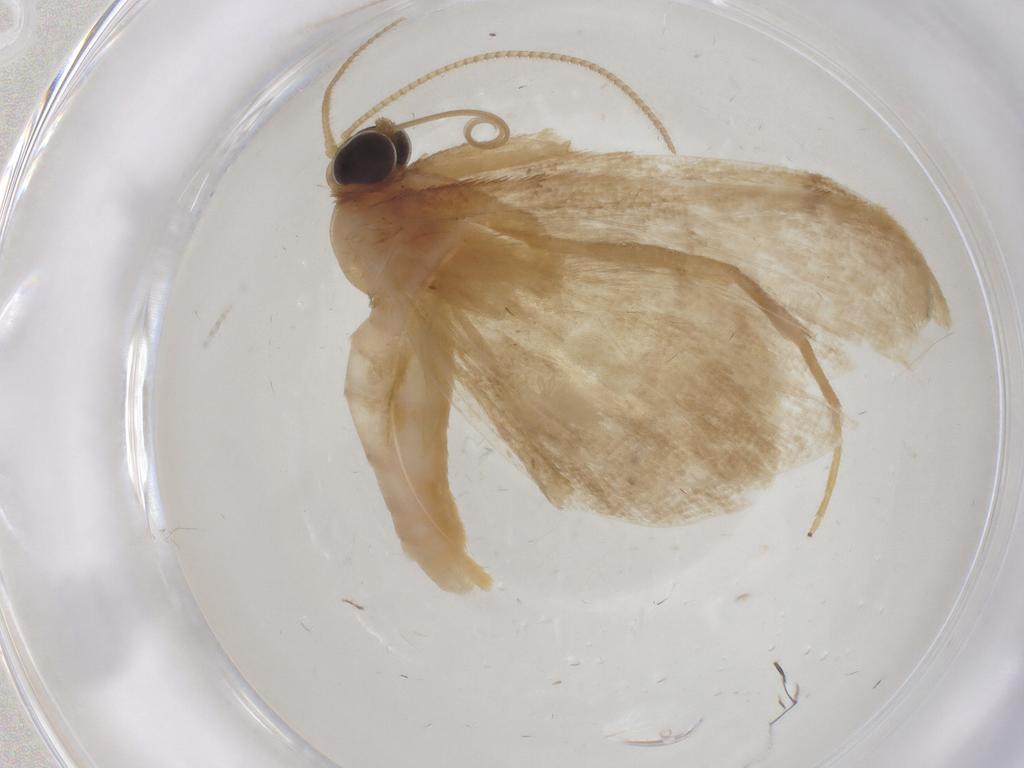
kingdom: Animalia
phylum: Arthropoda
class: Insecta
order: Lepidoptera
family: Geometridae
